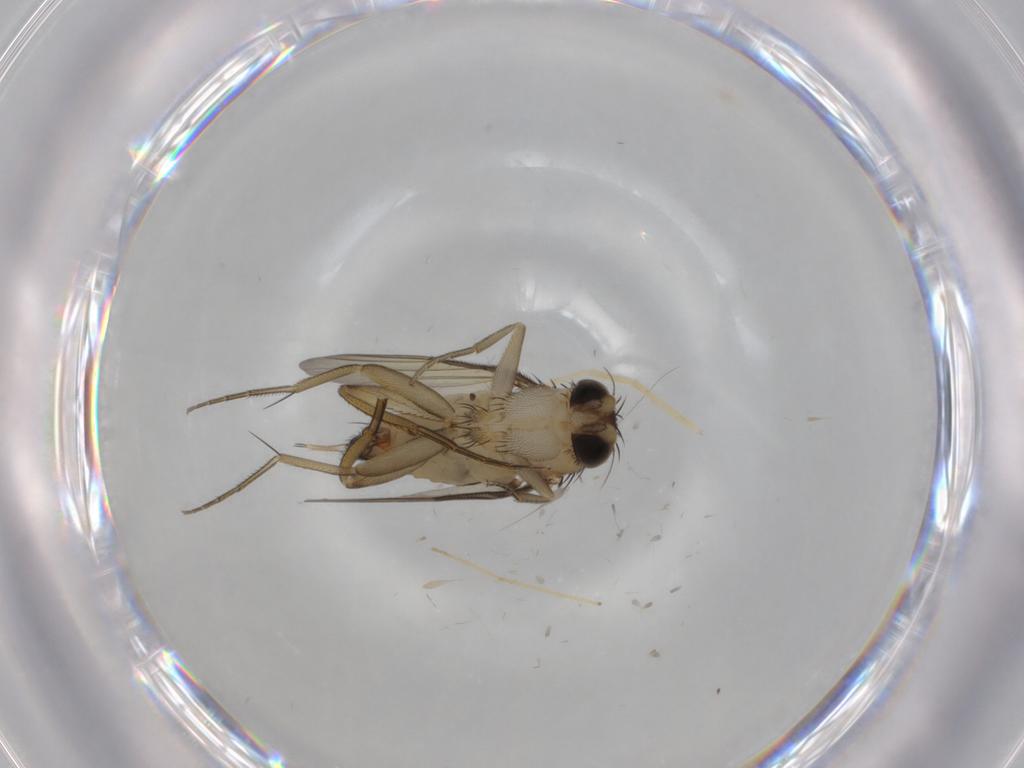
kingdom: Animalia
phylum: Arthropoda
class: Insecta
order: Diptera
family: Phoridae
